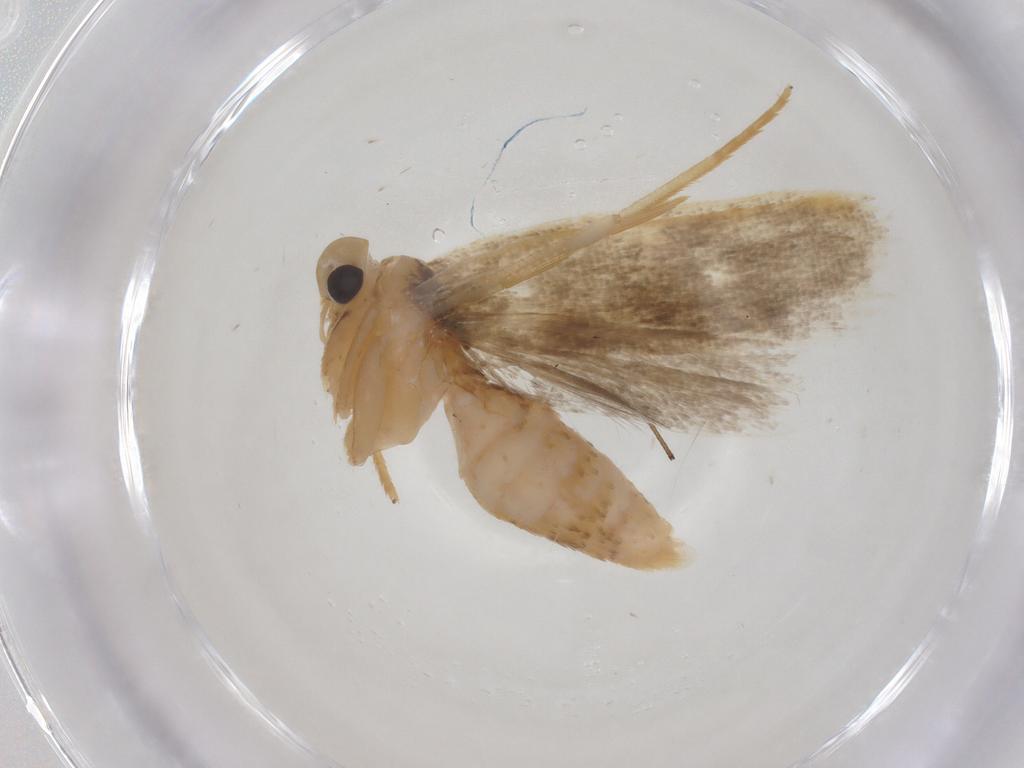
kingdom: Animalia
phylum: Arthropoda
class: Insecta
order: Lepidoptera
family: Gelechiidae
